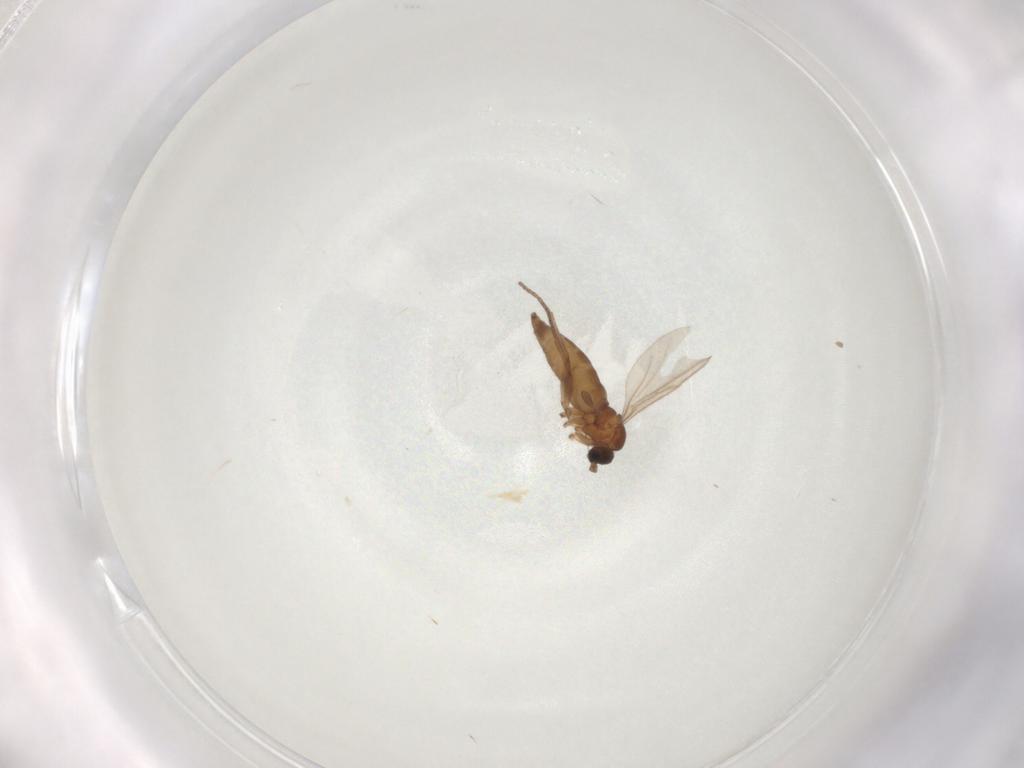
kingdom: Animalia
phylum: Arthropoda
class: Insecta
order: Diptera
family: Sciaridae
